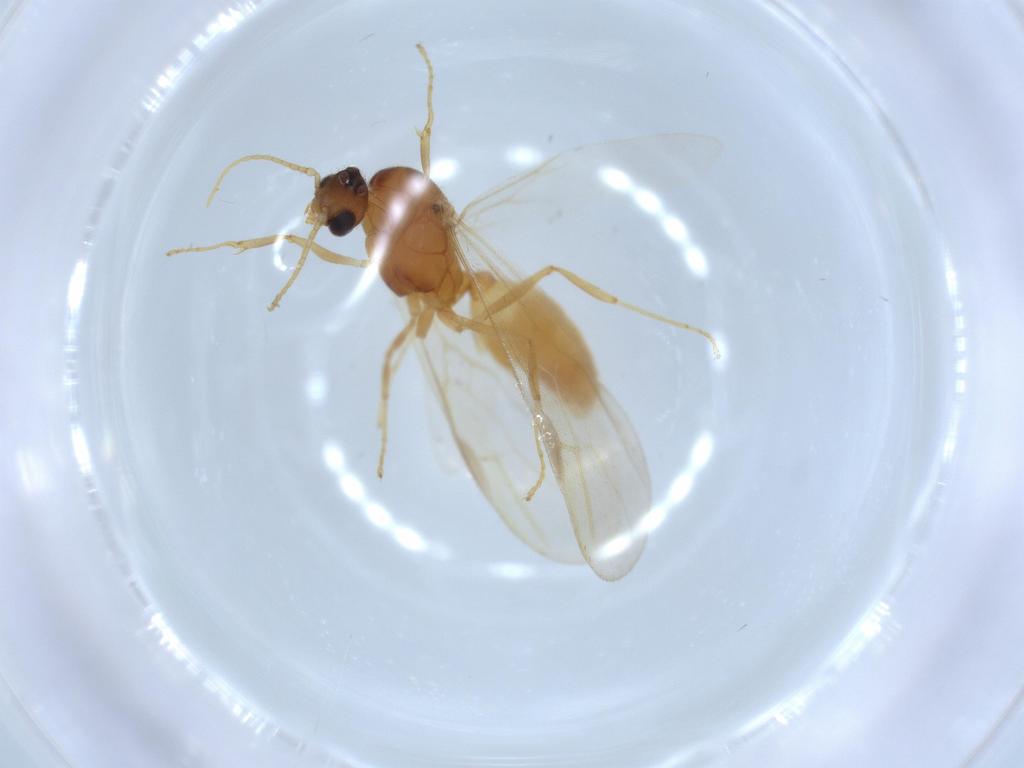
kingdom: Animalia
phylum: Arthropoda
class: Insecta
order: Hymenoptera
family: Formicidae
